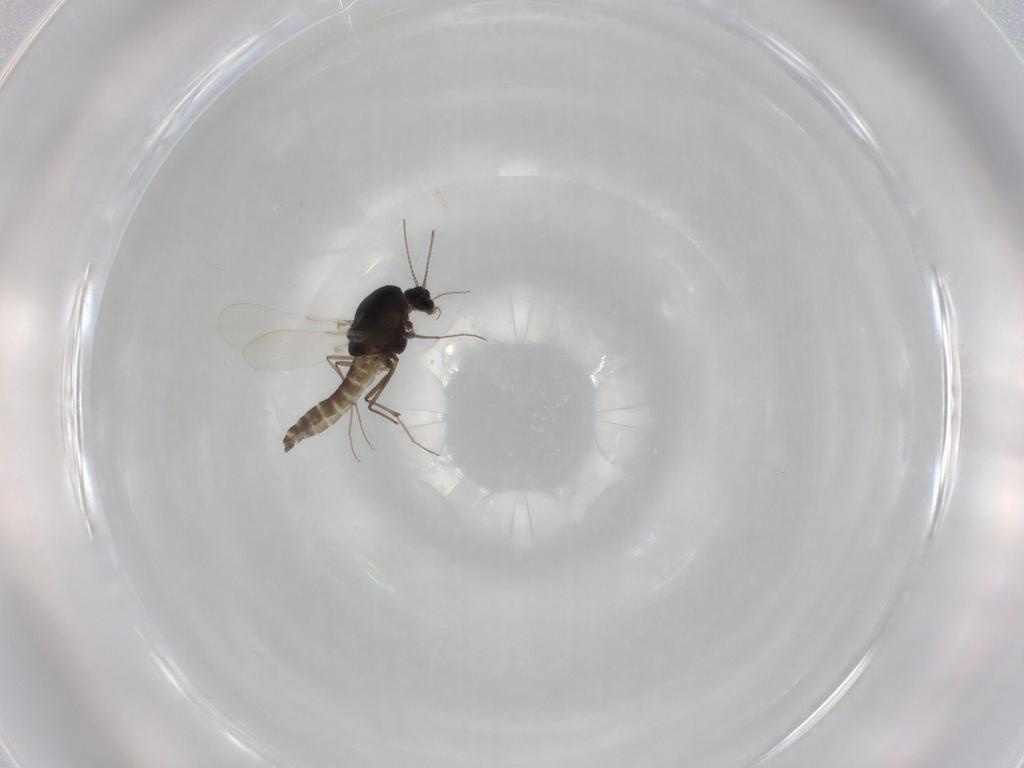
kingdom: Animalia
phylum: Arthropoda
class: Insecta
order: Diptera
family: Chironomidae
